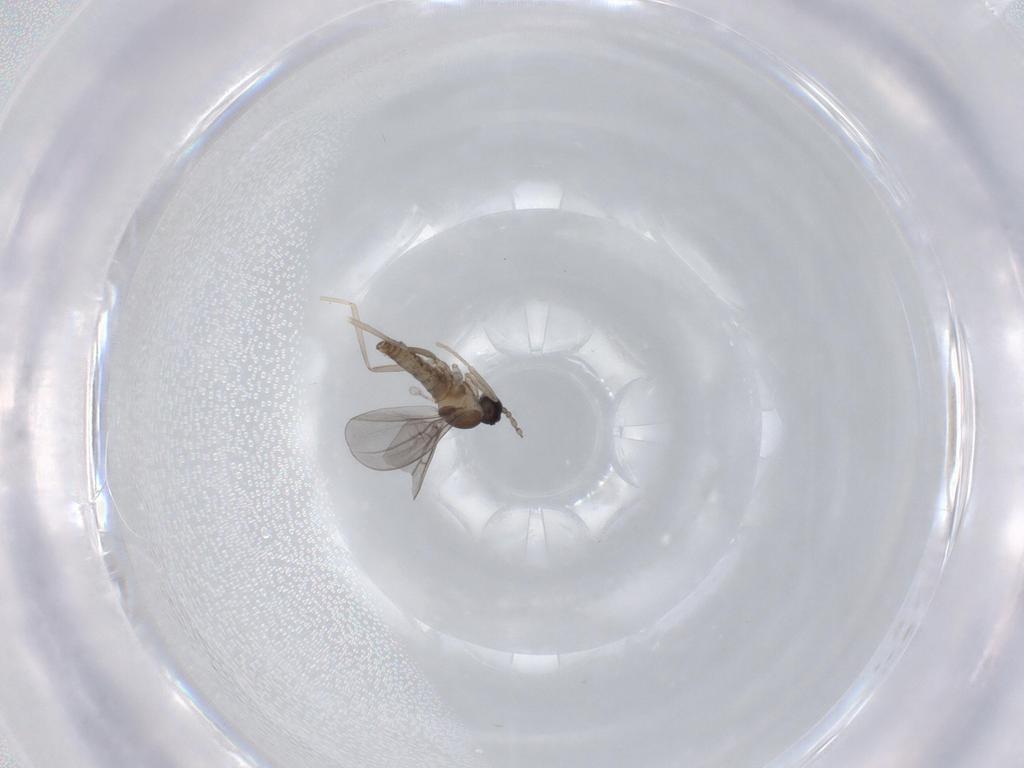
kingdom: Animalia
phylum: Arthropoda
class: Insecta
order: Diptera
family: Cecidomyiidae
